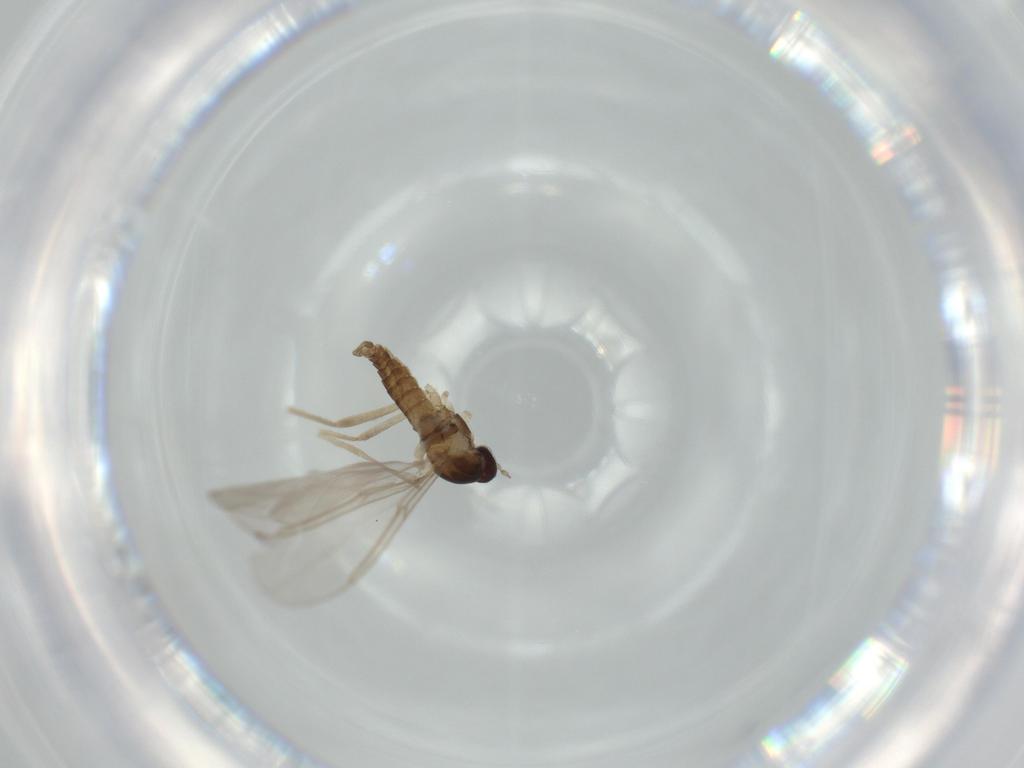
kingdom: Animalia
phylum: Arthropoda
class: Insecta
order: Diptera
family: Cecidomyiidae
